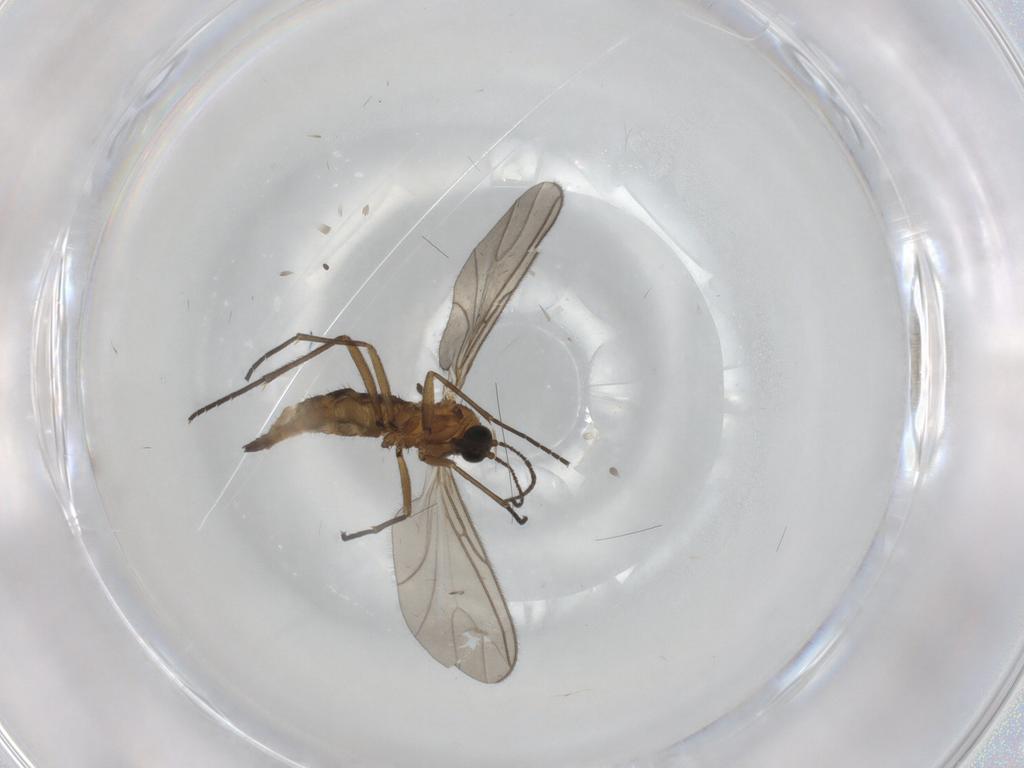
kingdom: Animalia
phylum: Arthropoda
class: Insecta
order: Diptera
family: Sciaridae
